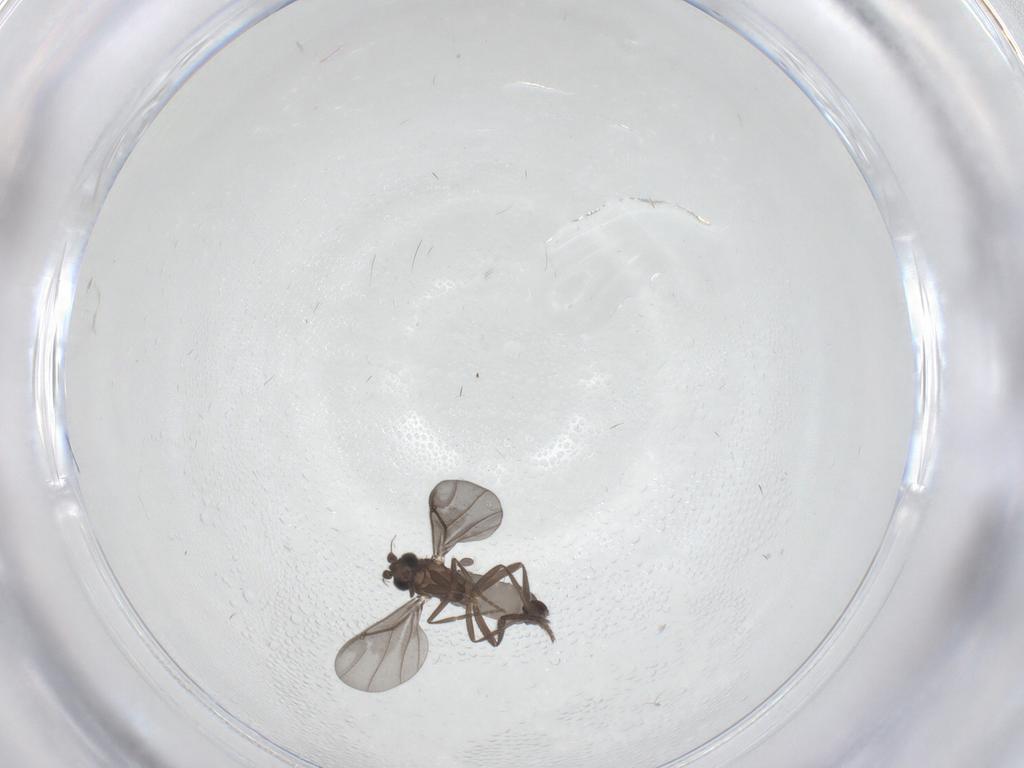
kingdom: Animalia
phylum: Arthropoda
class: Insecta
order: Diptera
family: Phoridae
